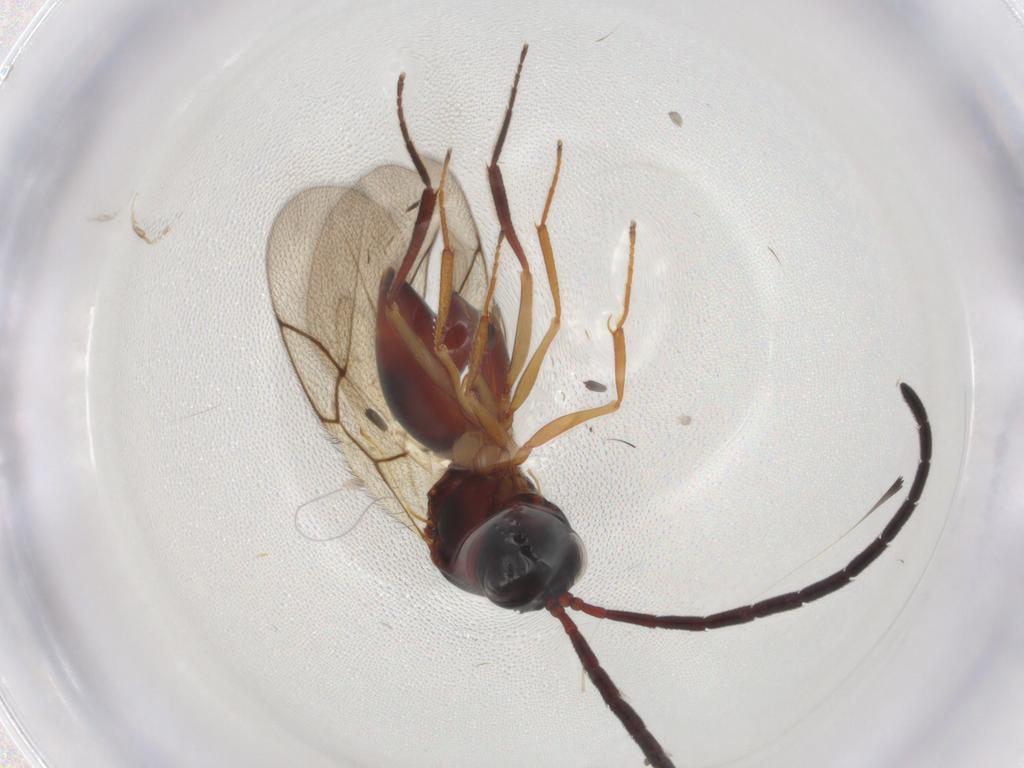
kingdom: Animalia
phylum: Arthropoda
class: Insecta
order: Hymenoptera
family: Figitidae
